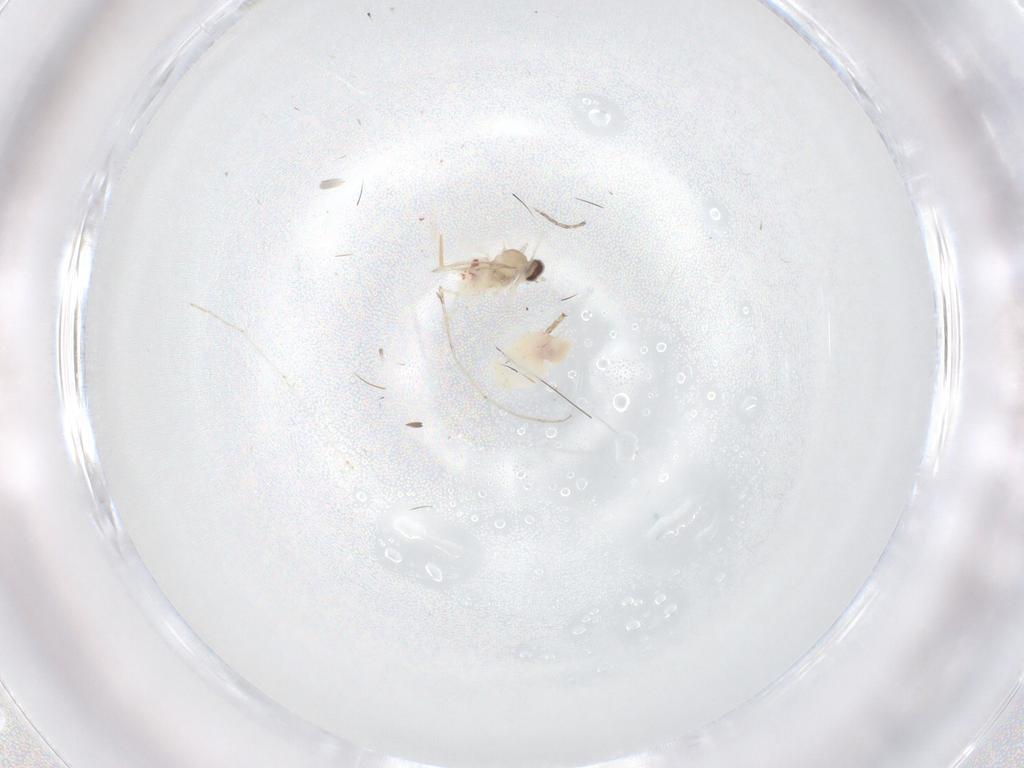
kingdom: Animalia
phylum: Arthropoda
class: Insecta
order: Diptera
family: Cecidomyiidae
